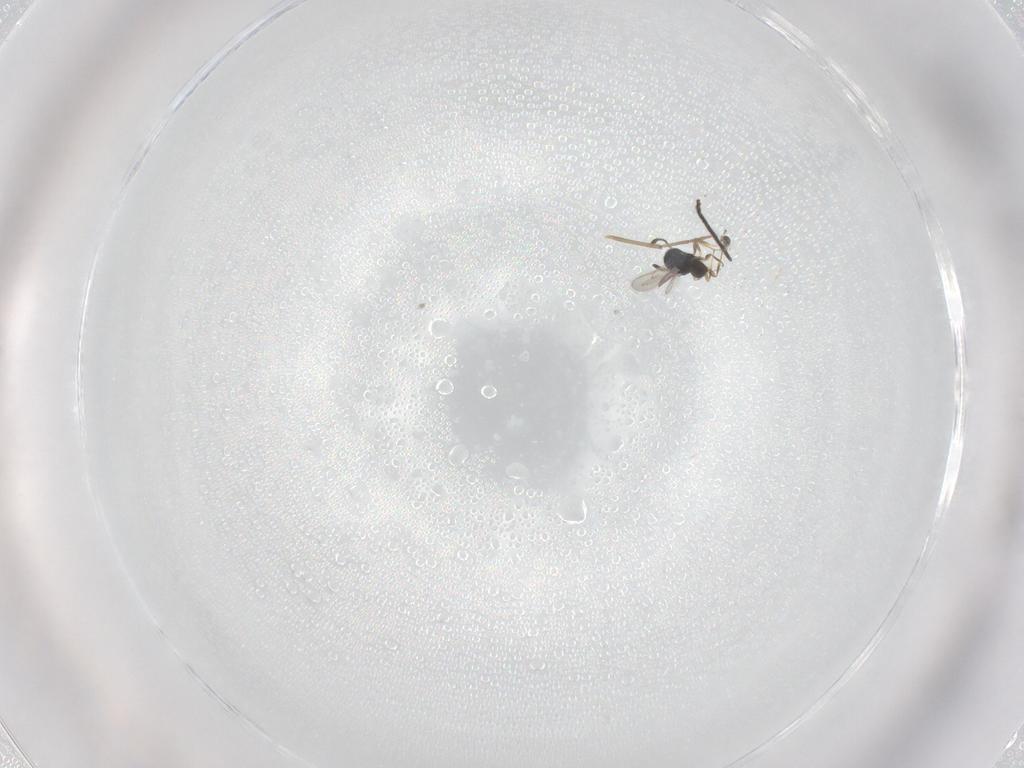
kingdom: Animalia
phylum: Arthropoda
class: Insecta
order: Hymenoptera
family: Scelionidae
